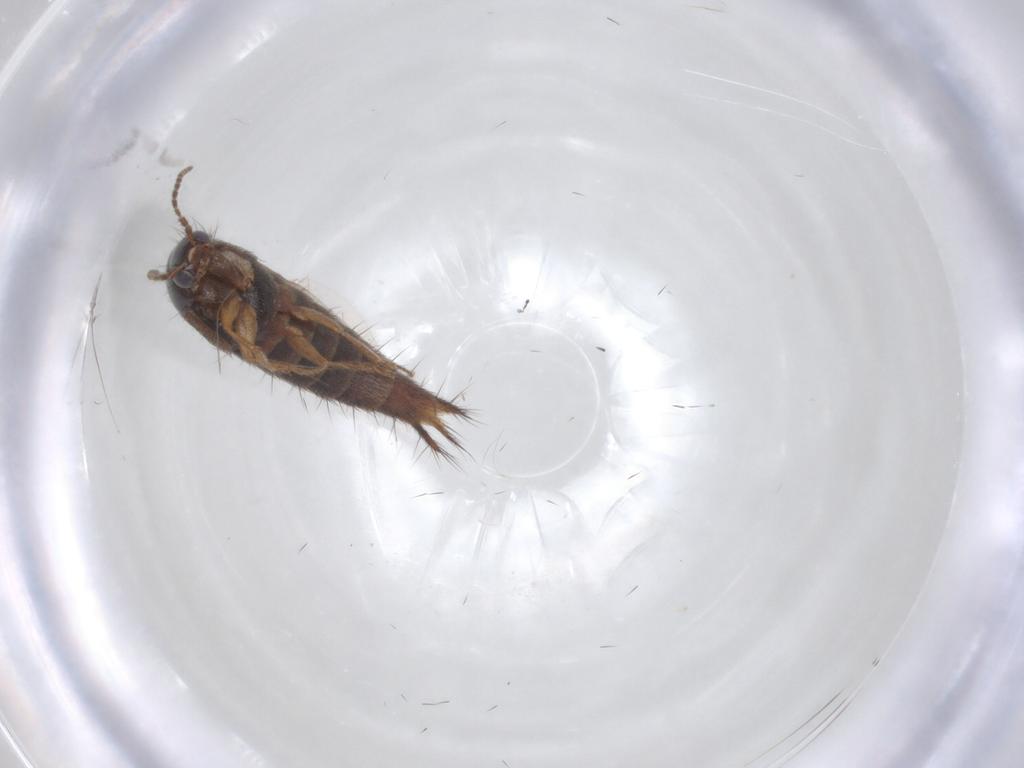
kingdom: Animalia
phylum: Arthropoda
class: Insecta
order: Coleoptera
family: Staphylinidae
